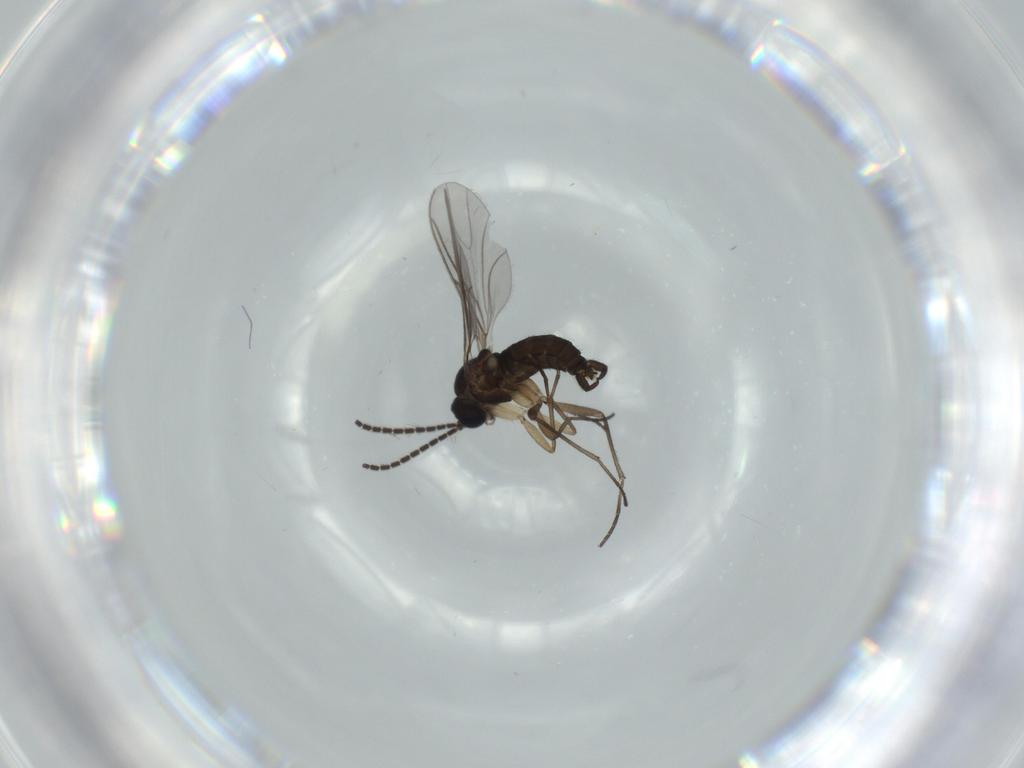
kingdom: Animalia
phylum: Arthropoda
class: Insecta
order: Diptera
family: Sciaridae
